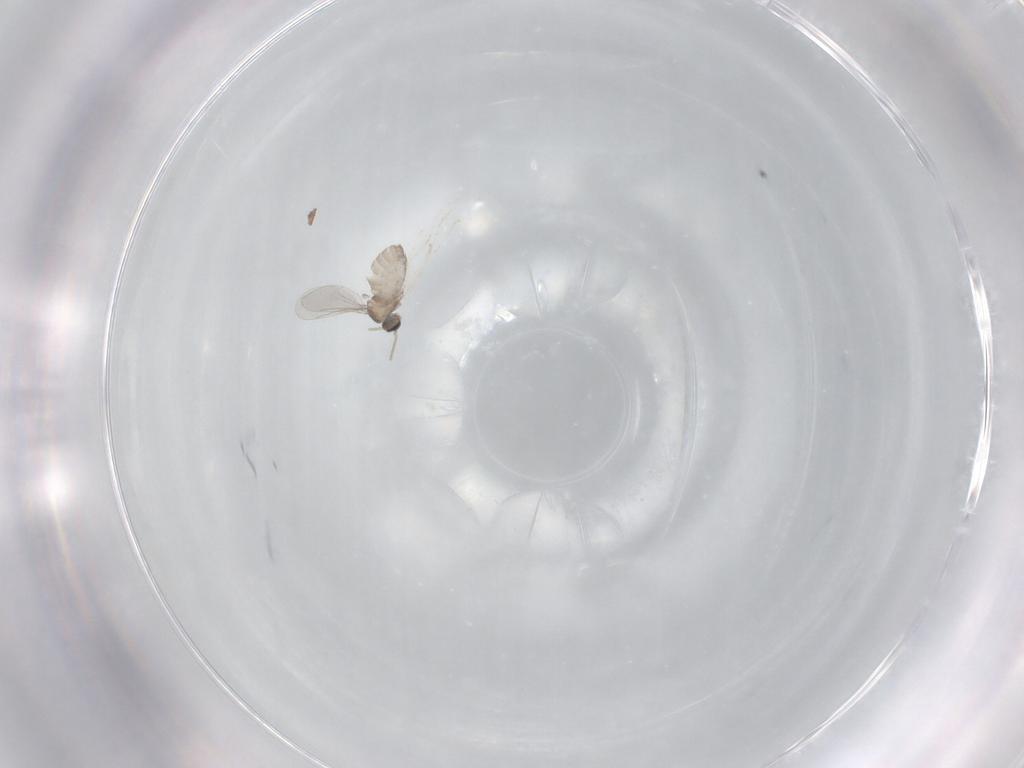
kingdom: Animalia
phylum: Arthropoda
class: Insecta
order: Diptera
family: Cecidomyiidae
